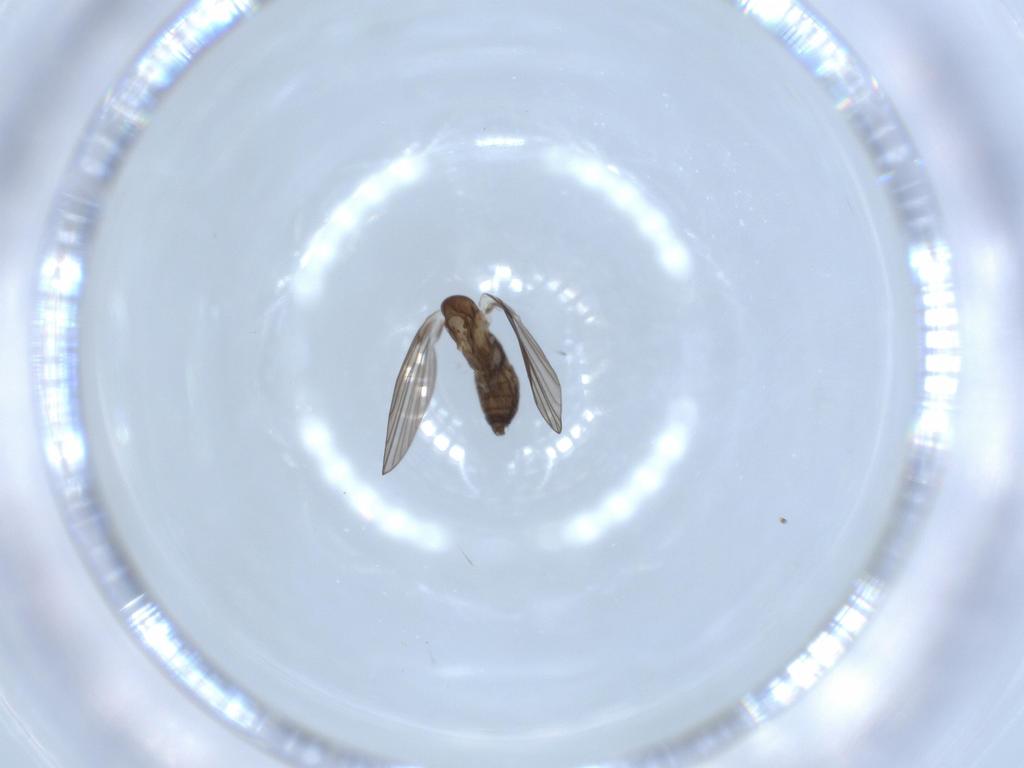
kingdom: Animalia
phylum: Arthropoda
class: Insecta
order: Diptera
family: Psychodidae
